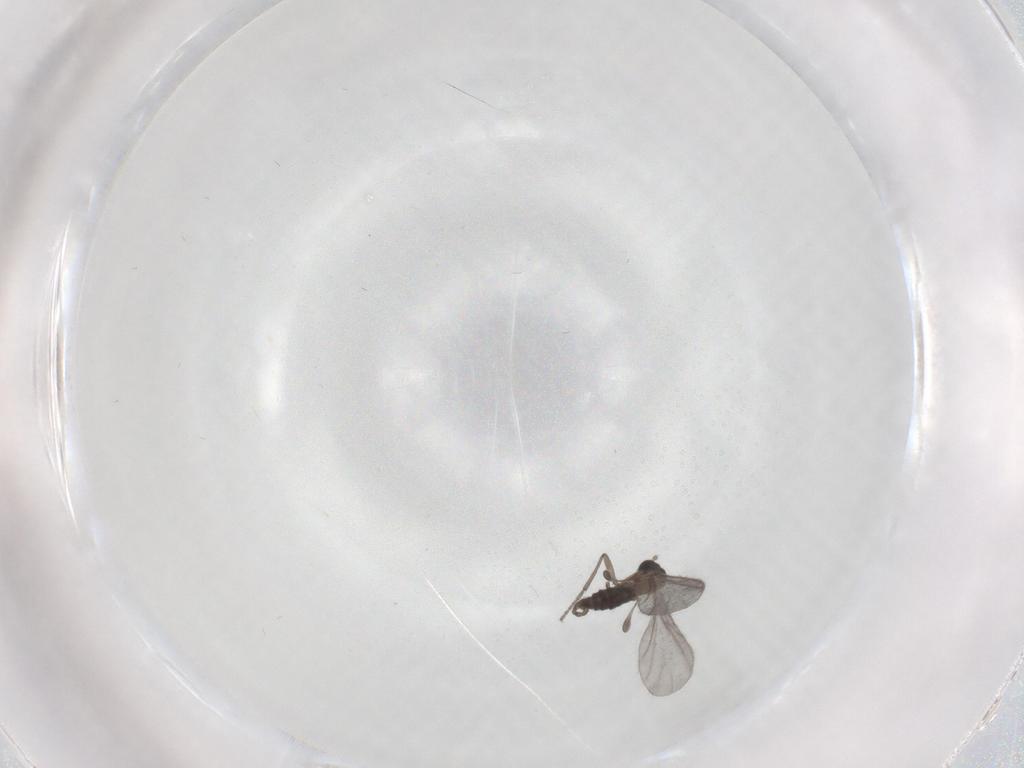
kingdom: Animalia
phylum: Arthropoda
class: Insecta
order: Diptera
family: Sciaridae
